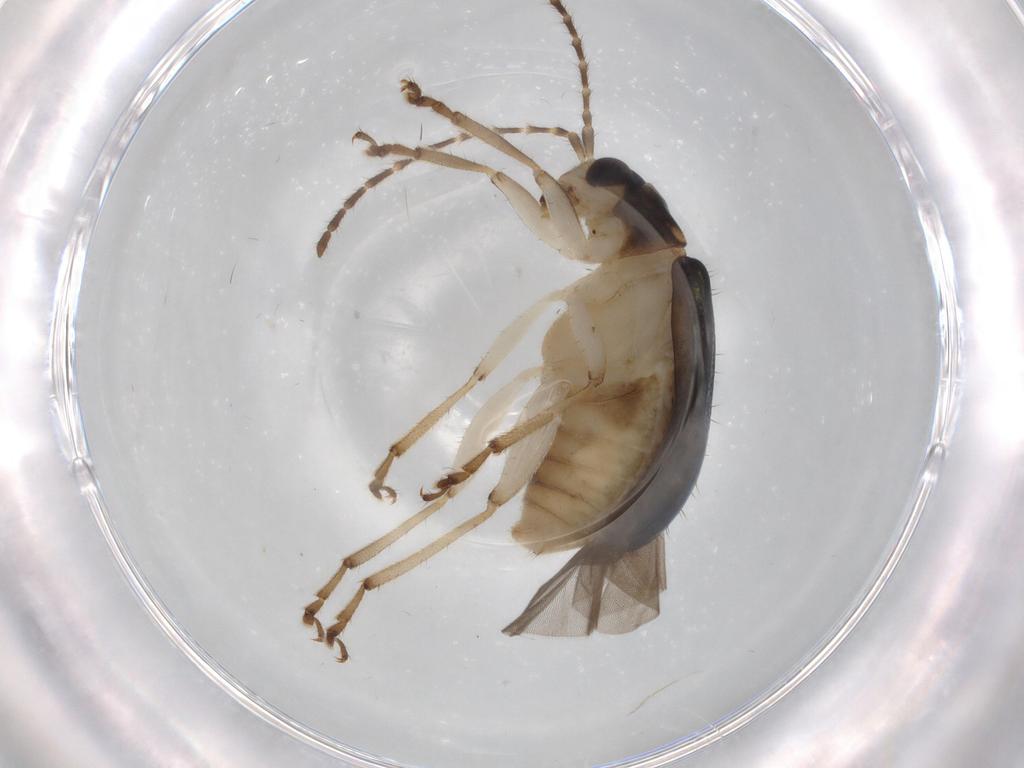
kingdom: Animalia
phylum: Arthropoda
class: Insecta
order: Coleoptera
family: Chrysomelidae
